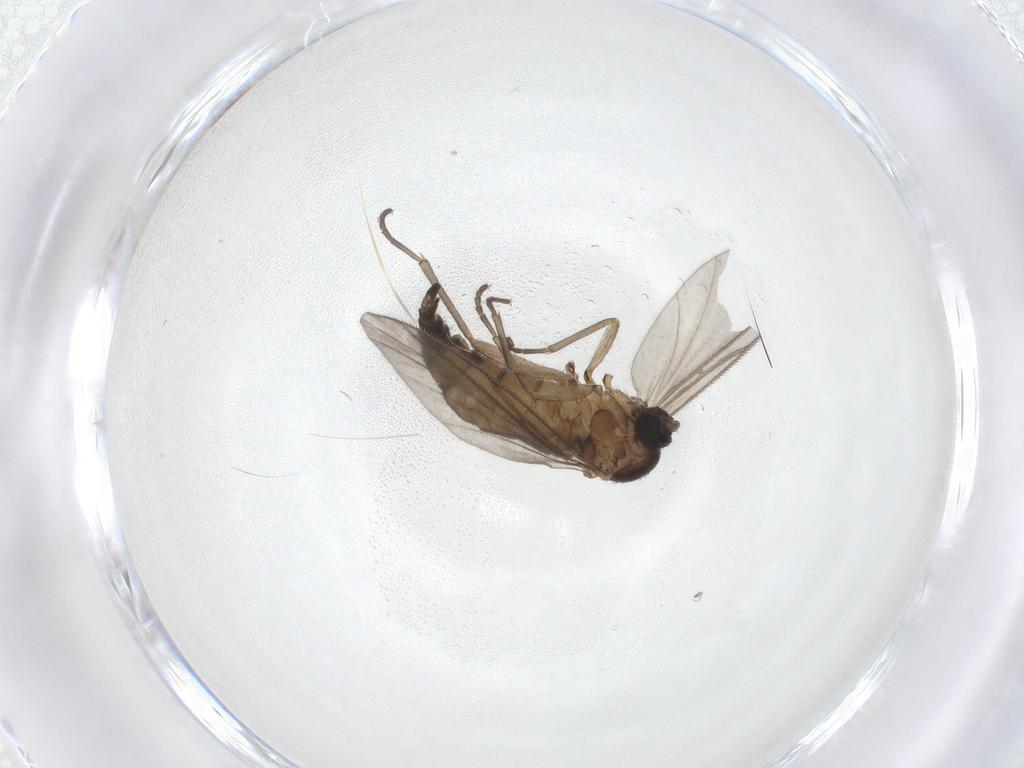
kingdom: Animalia
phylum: Arthropoda
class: Insecta
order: Diptera
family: Sciaridae
